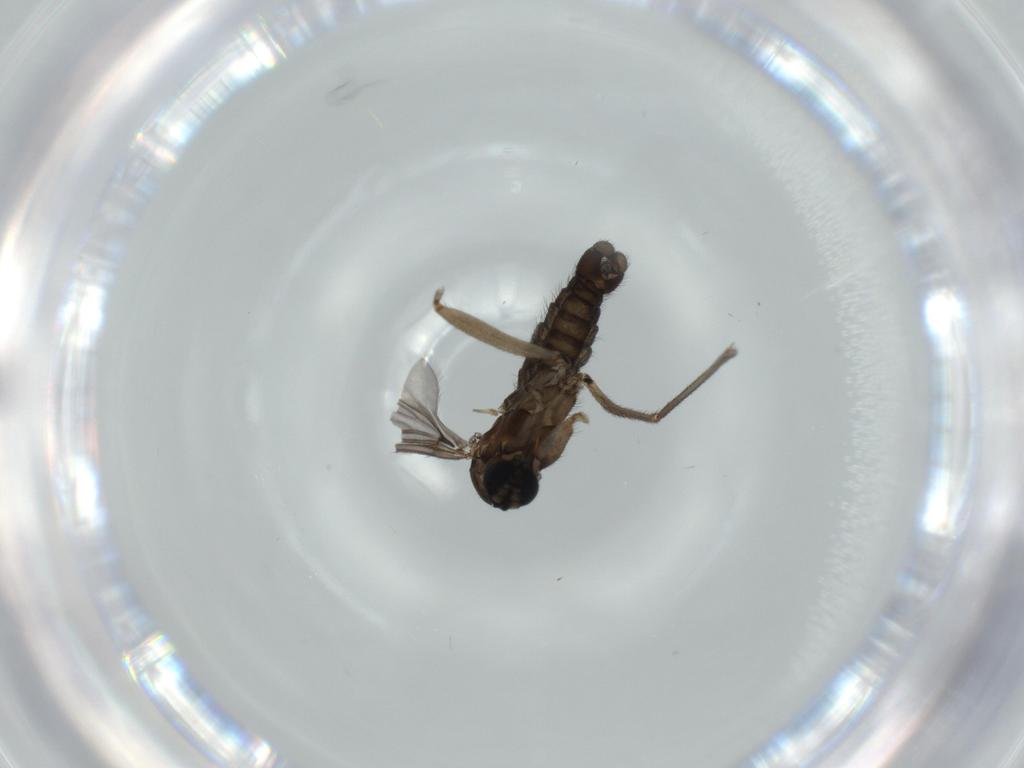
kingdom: Animalia
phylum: Arthropoda
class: Insecta
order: Diptera
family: Sciaridae
